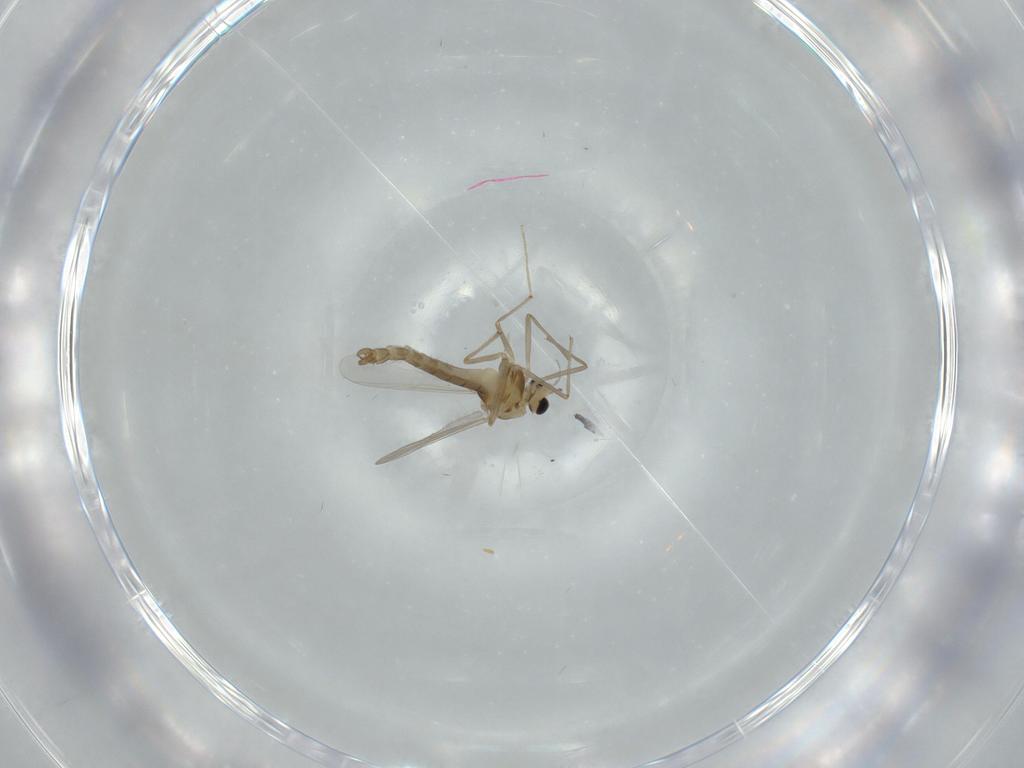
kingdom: Animalia
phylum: Arthropoda
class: Insecta
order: Diptera
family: Chironomidae
